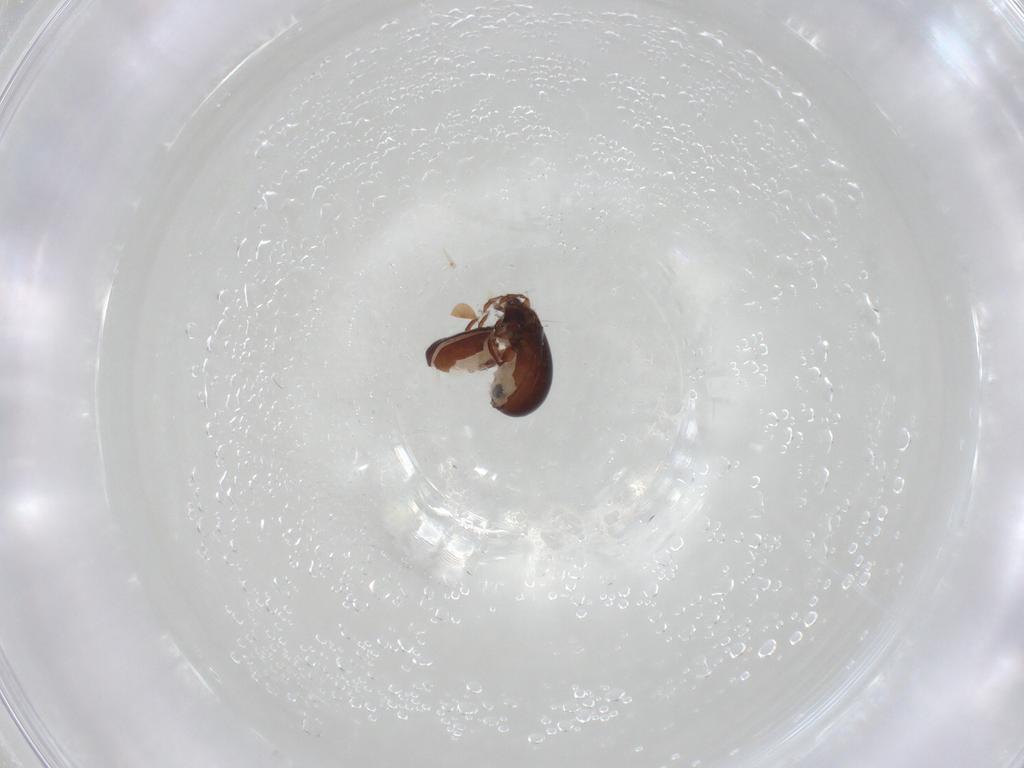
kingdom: Animalia
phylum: Arthropoda
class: Arachnida
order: Sarcoptiformes
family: Humerobatidae
